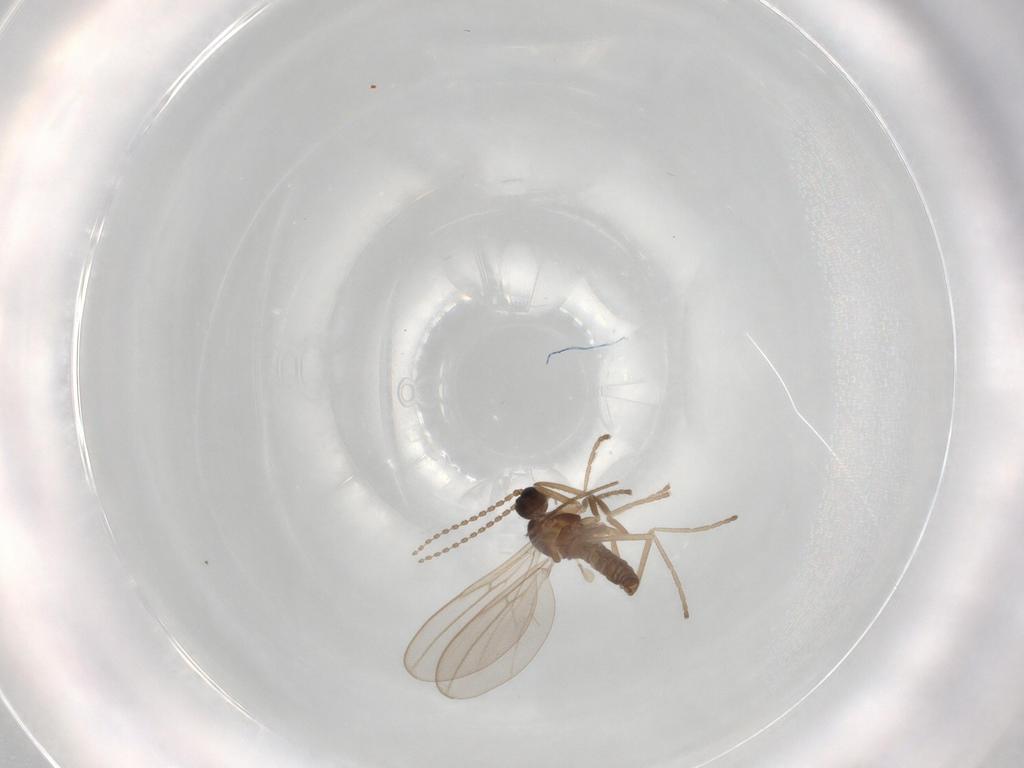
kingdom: Animalia
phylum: Arthropoda
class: Insecta
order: Diptera
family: Cecidomyiidae
